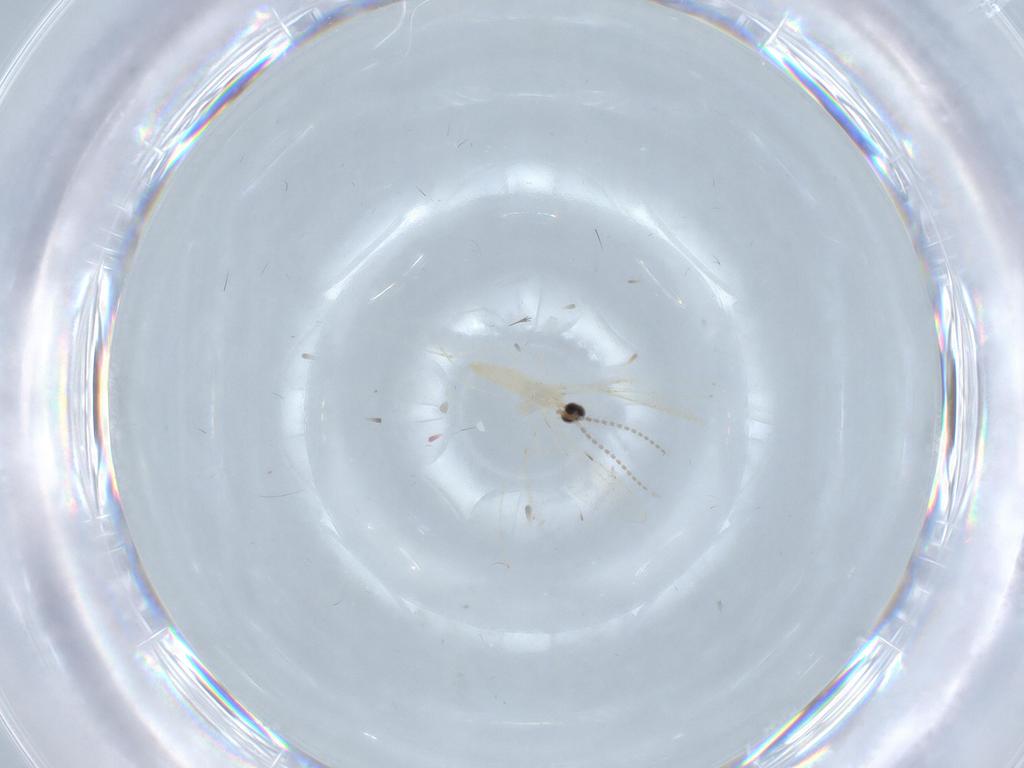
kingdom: Animalia
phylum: Arthropoda
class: Insecta
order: Diptera
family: Cecidomyiidae
